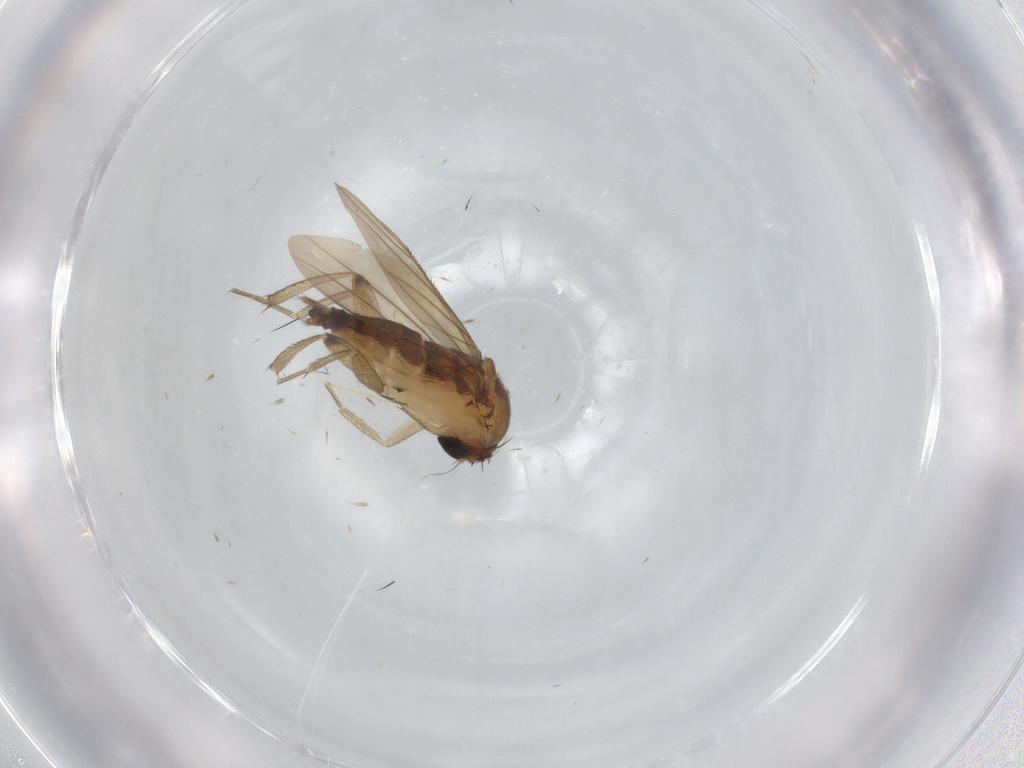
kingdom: Animalia
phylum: Arthropoda
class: Insecta
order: Diptera
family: Phoridae
